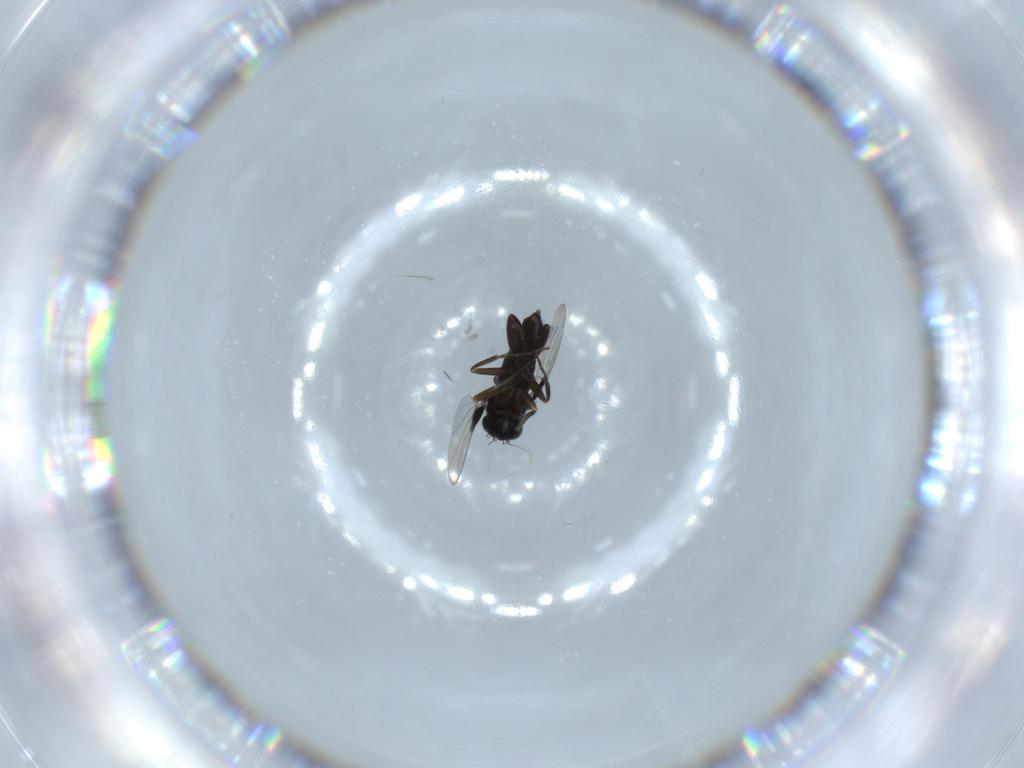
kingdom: Animalia
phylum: Arthropoda
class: Insecta
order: Diptera
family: Phoridae
